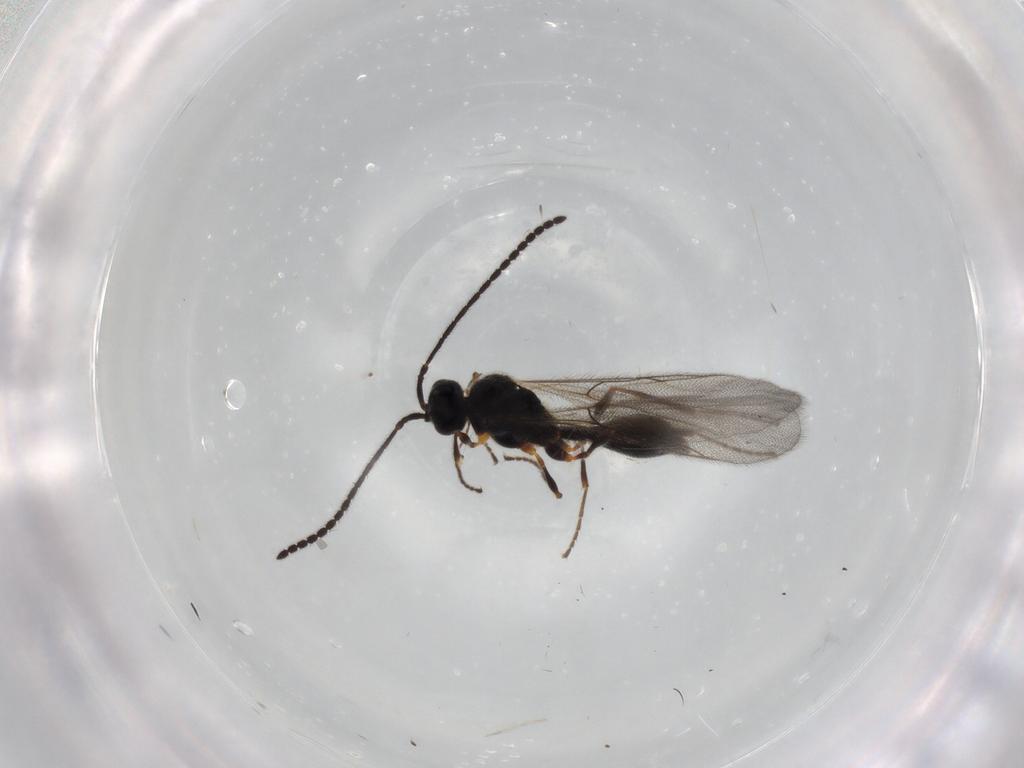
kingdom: Animalia
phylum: Arthropoda
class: Insecta
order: Hymenoptera
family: Diapriidae
